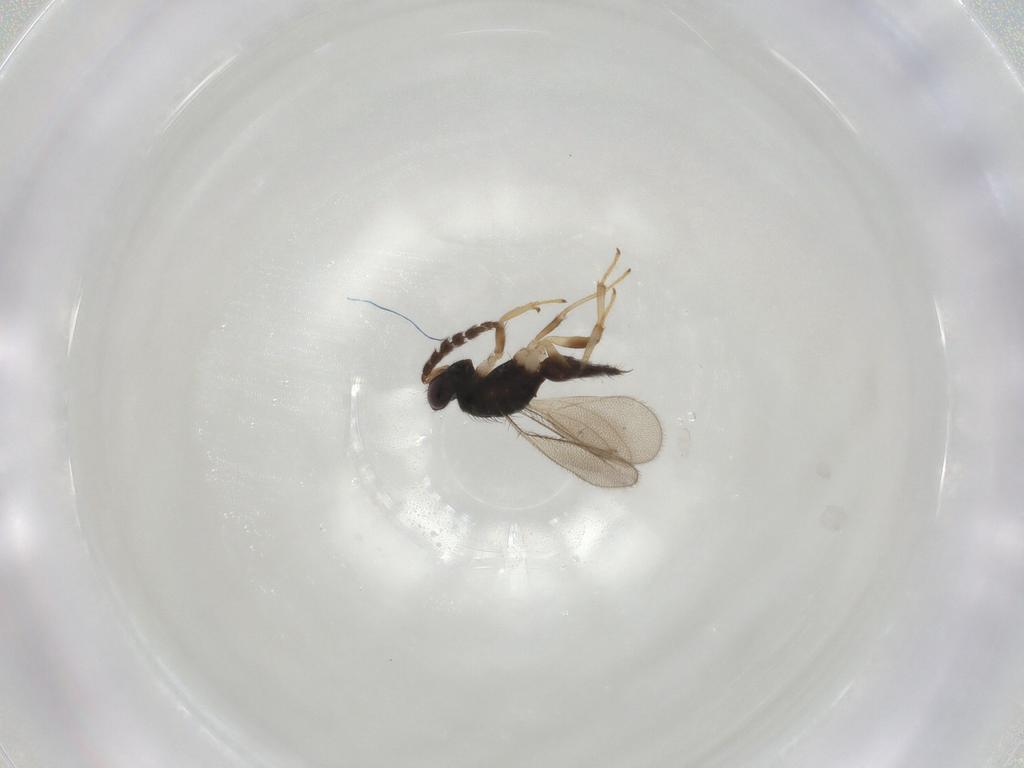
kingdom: Animalia
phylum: Arthropoda
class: Insecta
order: Hymenoptera
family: Eulophidae
